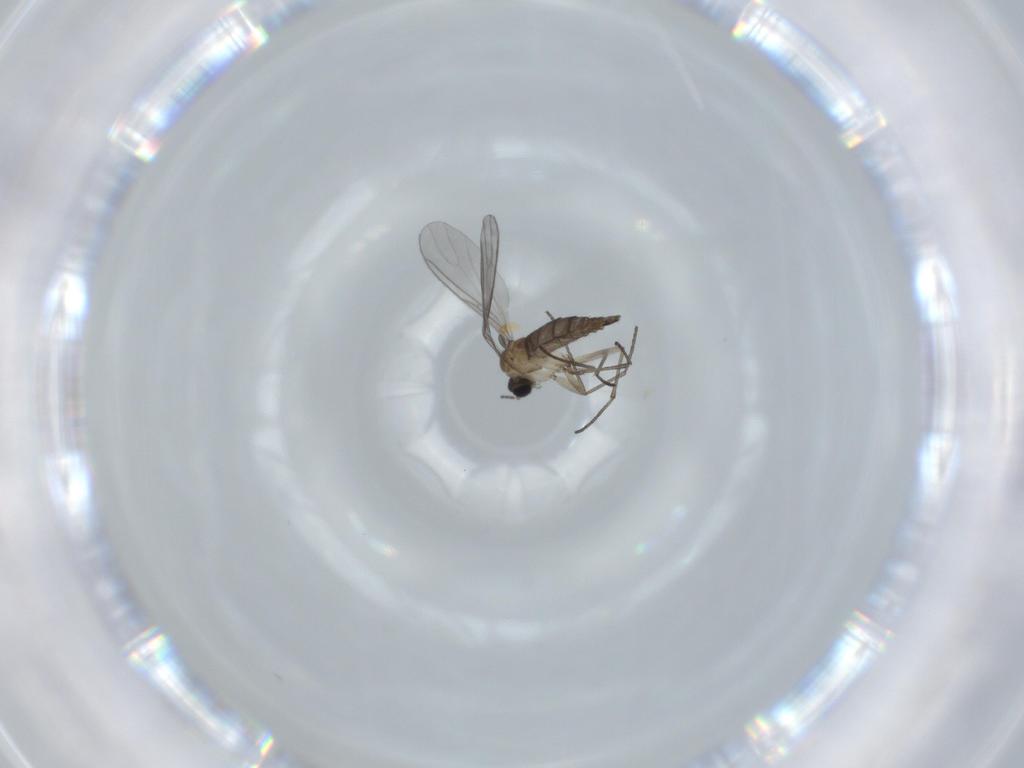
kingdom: Animalia
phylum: Arthropoda
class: Insecta
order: Diptera
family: Sciaridae
